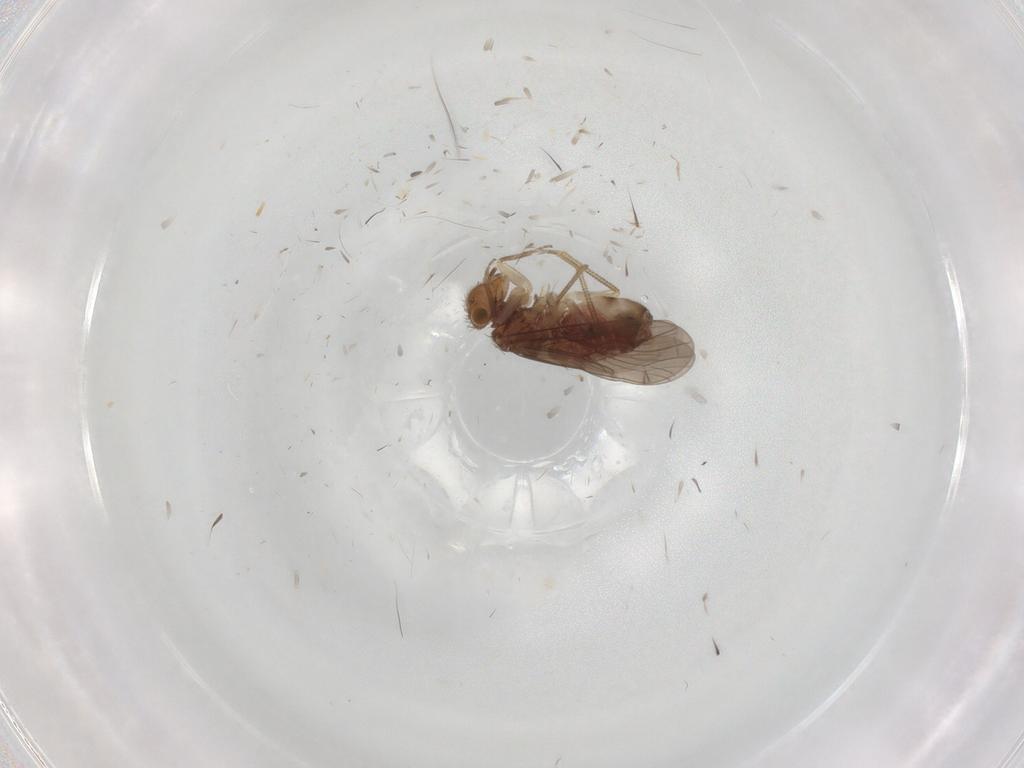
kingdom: Animalia
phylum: Arthropoda
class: Insecta
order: Psocodea
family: Ectopsocidae
